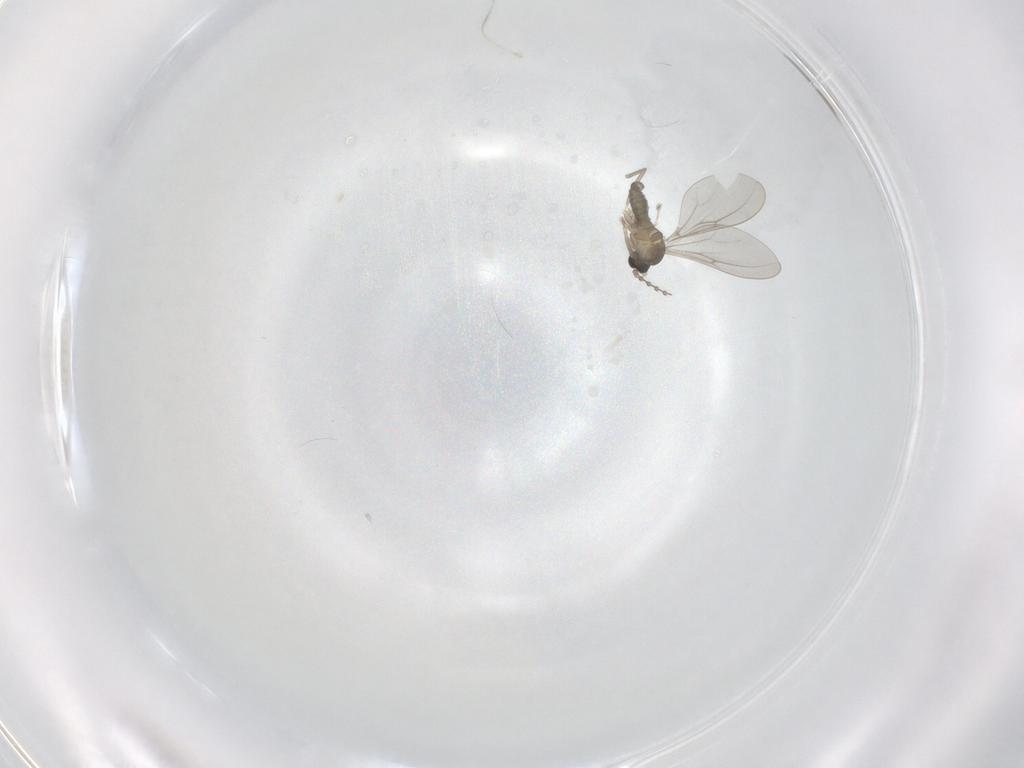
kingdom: Animalia
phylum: Arthropoda
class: Insecta
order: Diptera
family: Cecidomyiidae
